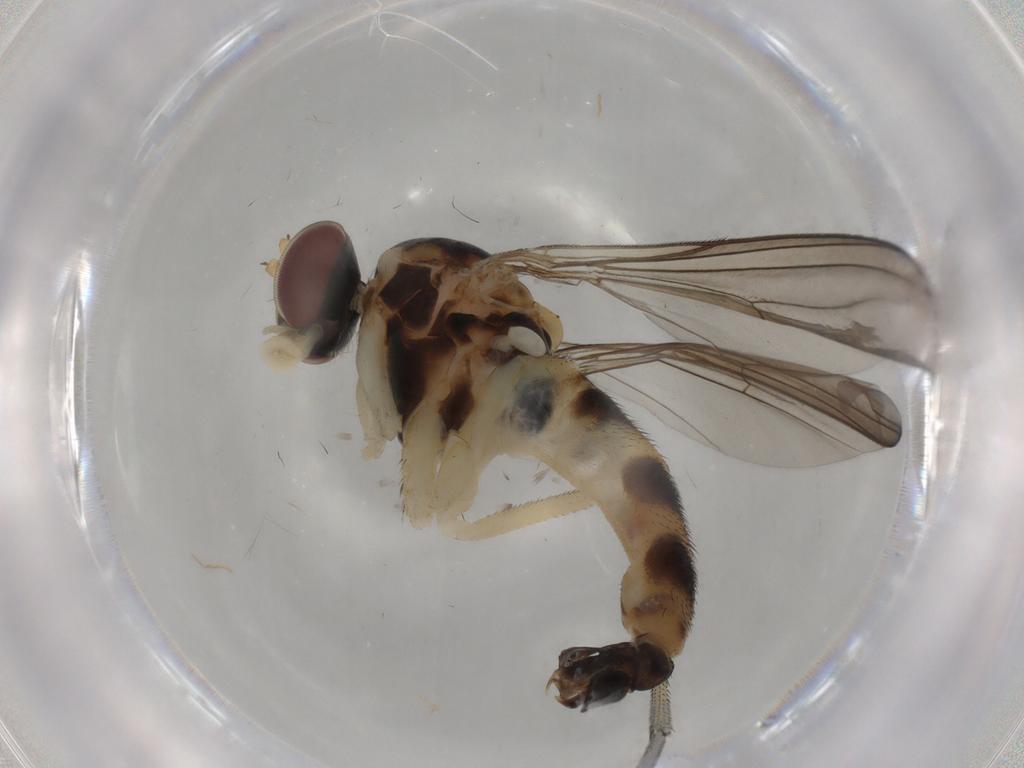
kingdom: Animalia
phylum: Arthropoda
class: Insecta
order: Diptera
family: Therevidae
